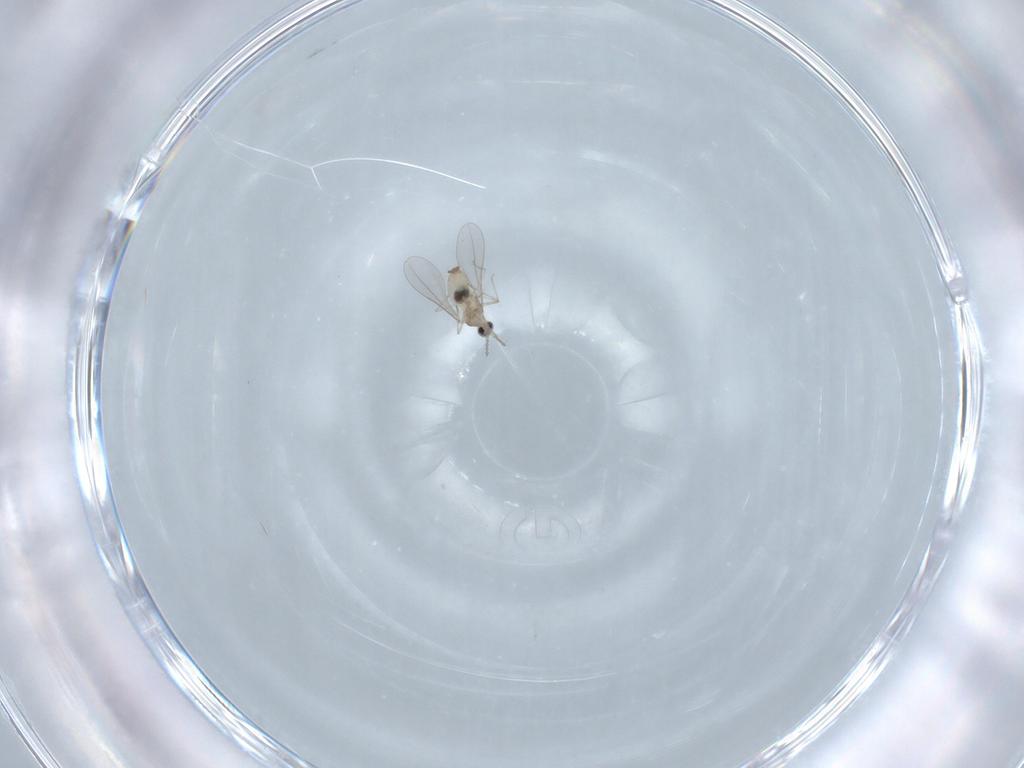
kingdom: Animalia
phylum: Arthropoda
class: Insecta
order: Diptera
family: Cecidomyiidae
